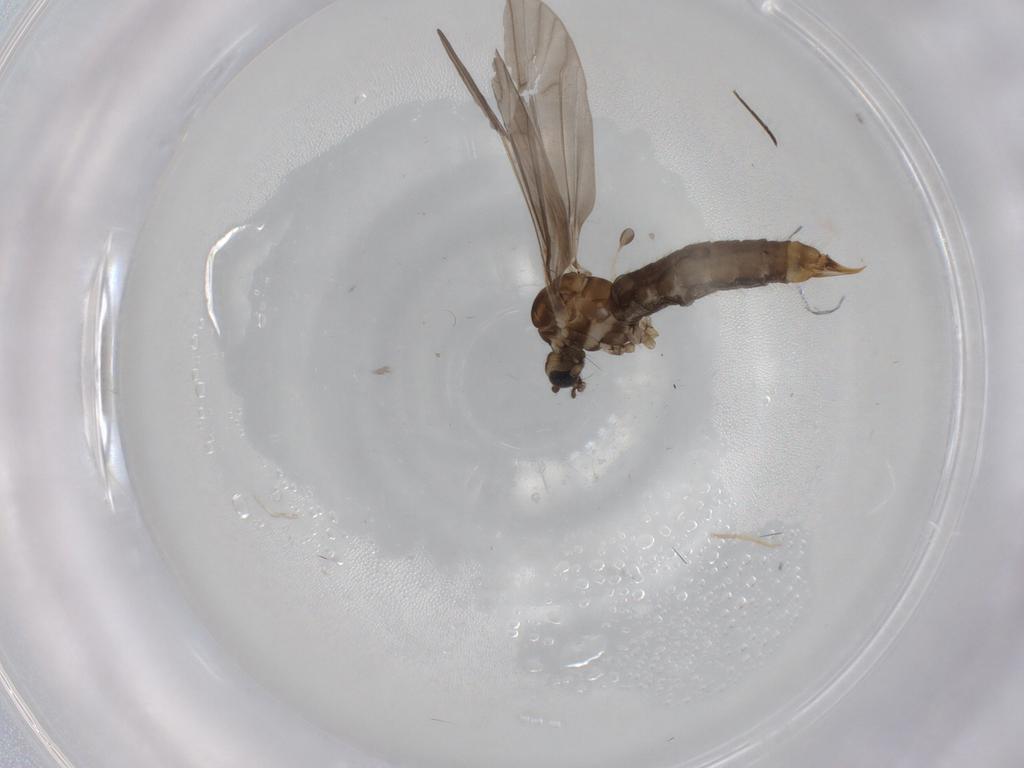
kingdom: Animalia
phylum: Arthropoda
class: Insecta
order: Diptera
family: Limoniidae
